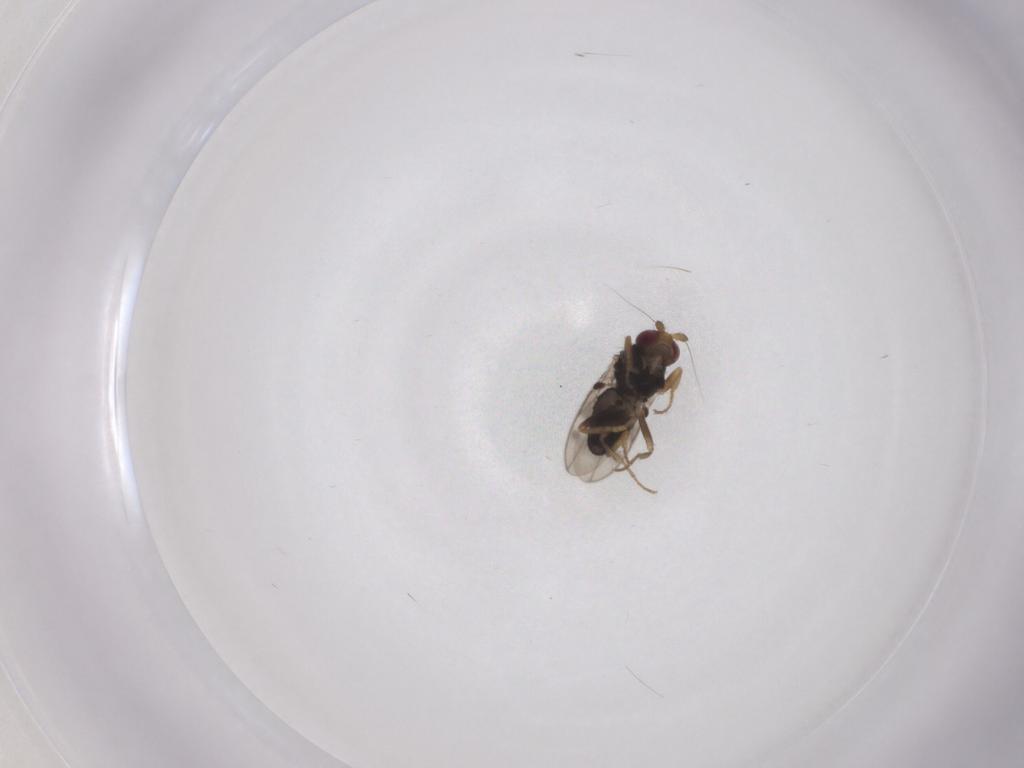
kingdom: Animalia
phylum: Arthropoda
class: Insecta
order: Diptera
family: Sphaeroceridae
